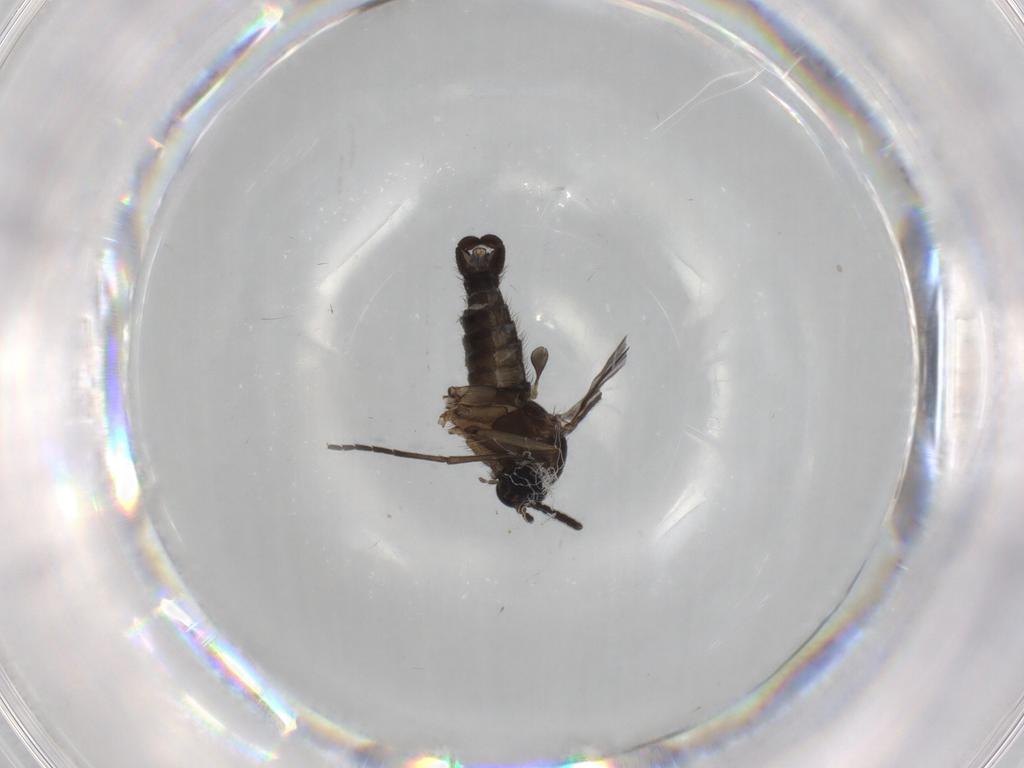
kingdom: Animalia
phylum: Arthropoda
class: Insecta
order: Diptera
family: Sciaridae
